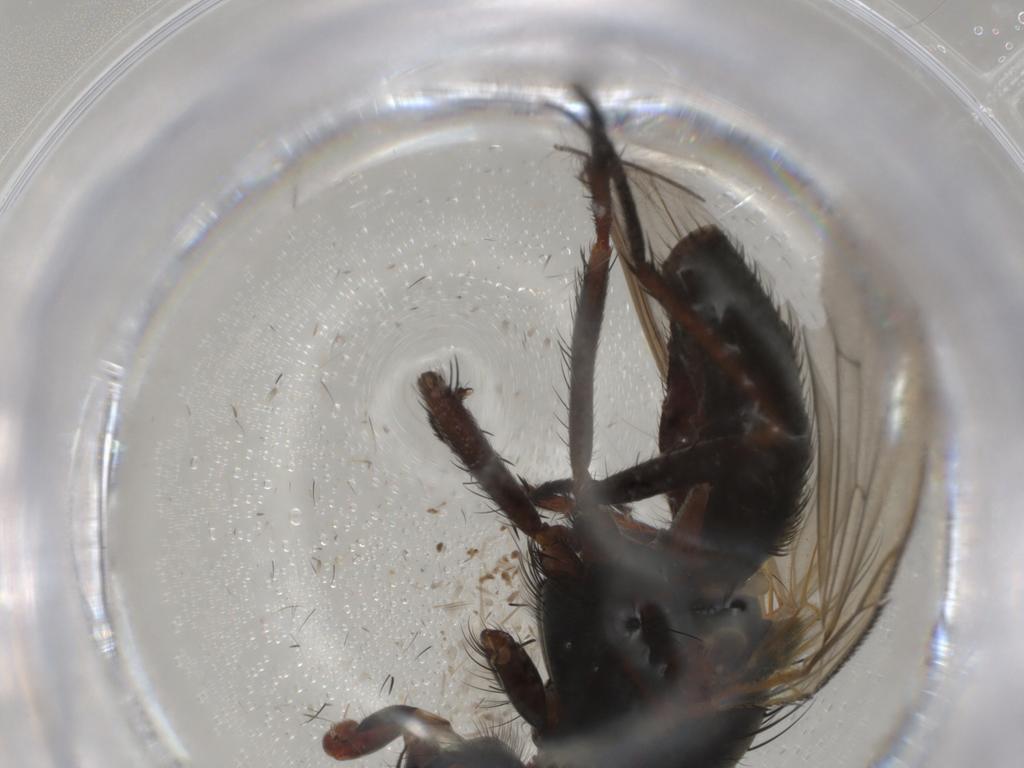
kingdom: Animalia
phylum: Arthropoda
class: Insecta
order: Diptera
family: Anthomyiidae
